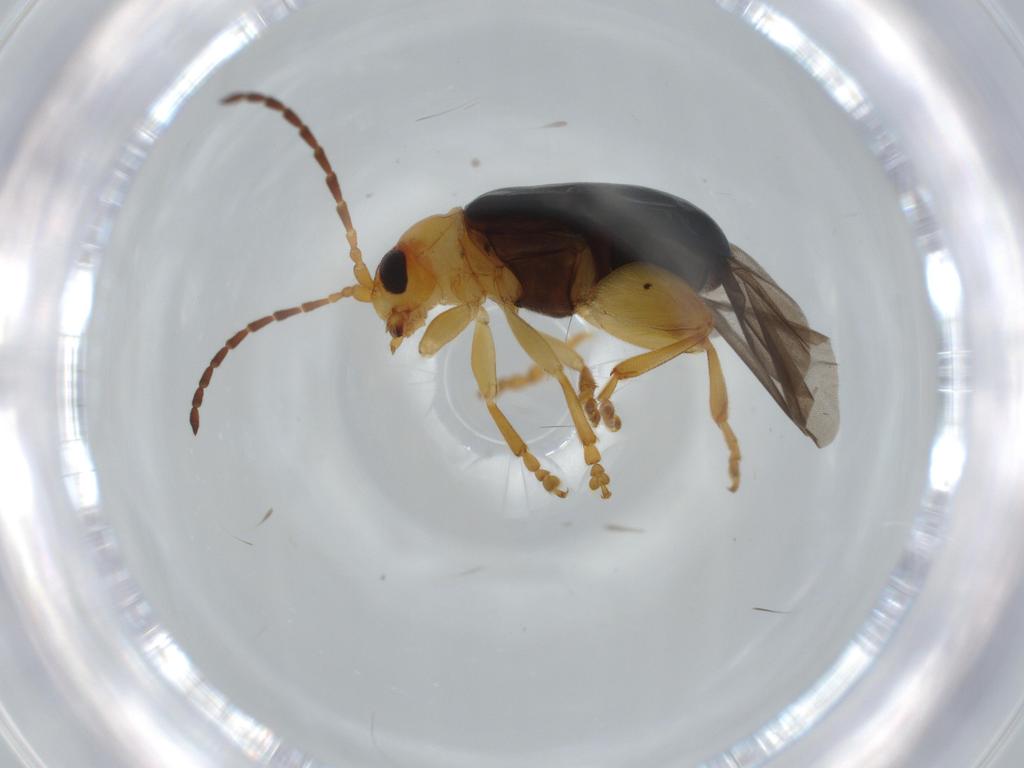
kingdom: Animalia
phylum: Arthropoda
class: Insecta
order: Coleoptera
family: Chrysomelidae
